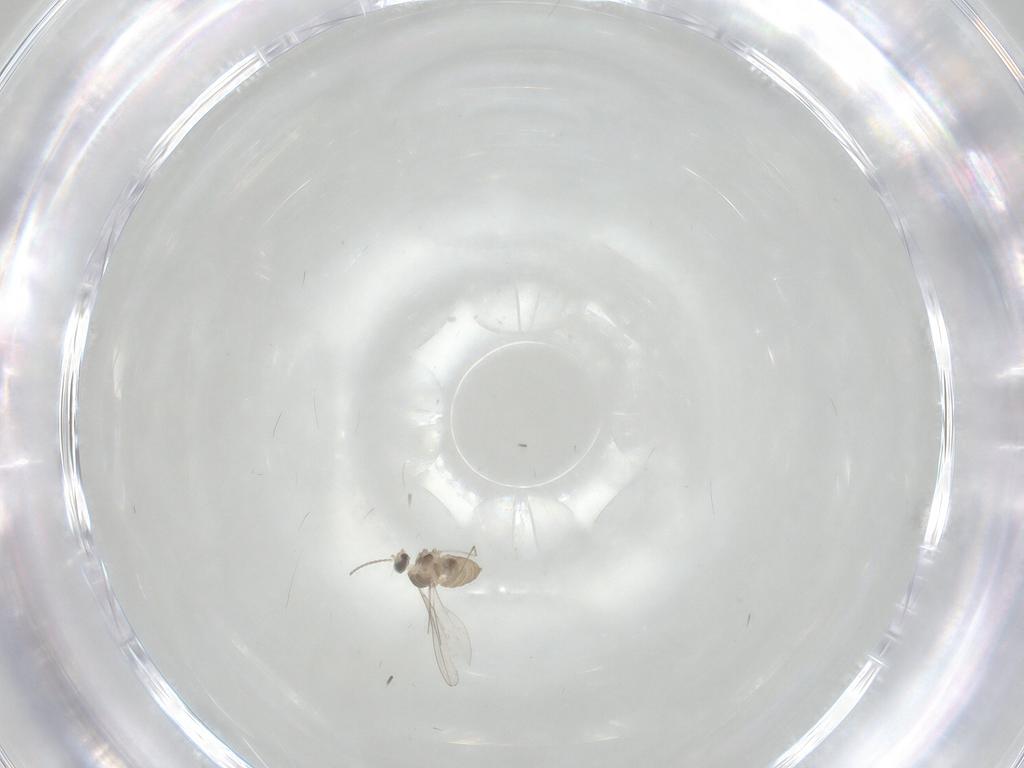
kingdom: Animalia
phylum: Arthropoda
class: Insecta
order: Diptera
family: Cecidomyiidae
